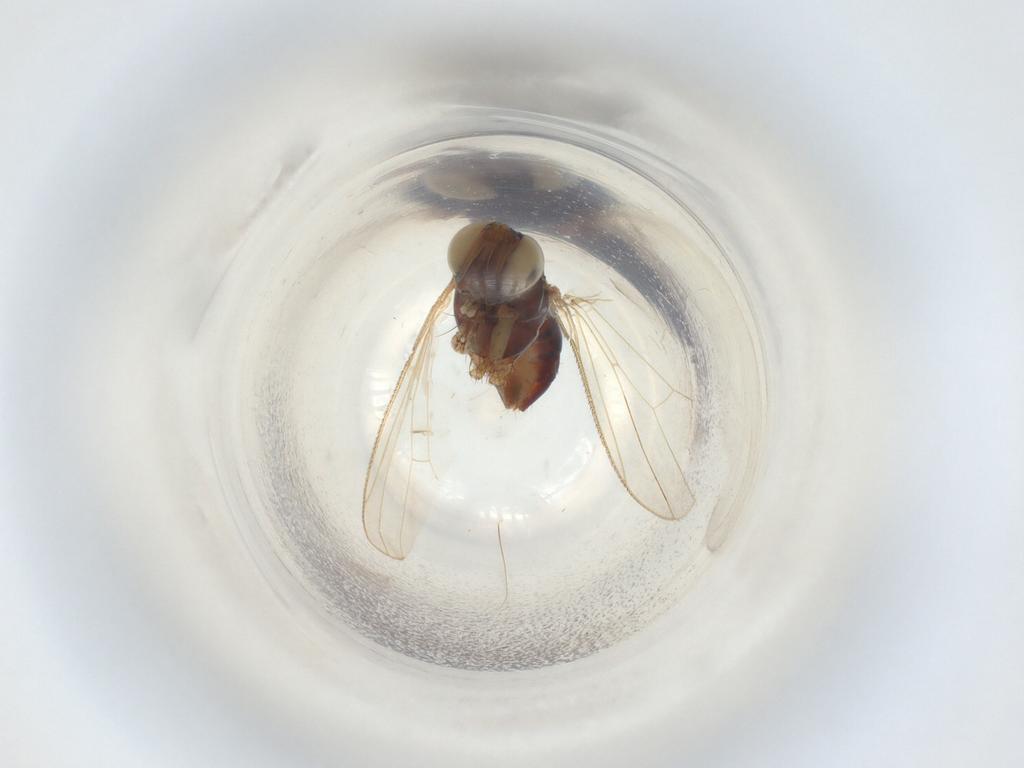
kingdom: Animalia
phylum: Arthropoda
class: Insecta
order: Diptera
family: Muscidae
